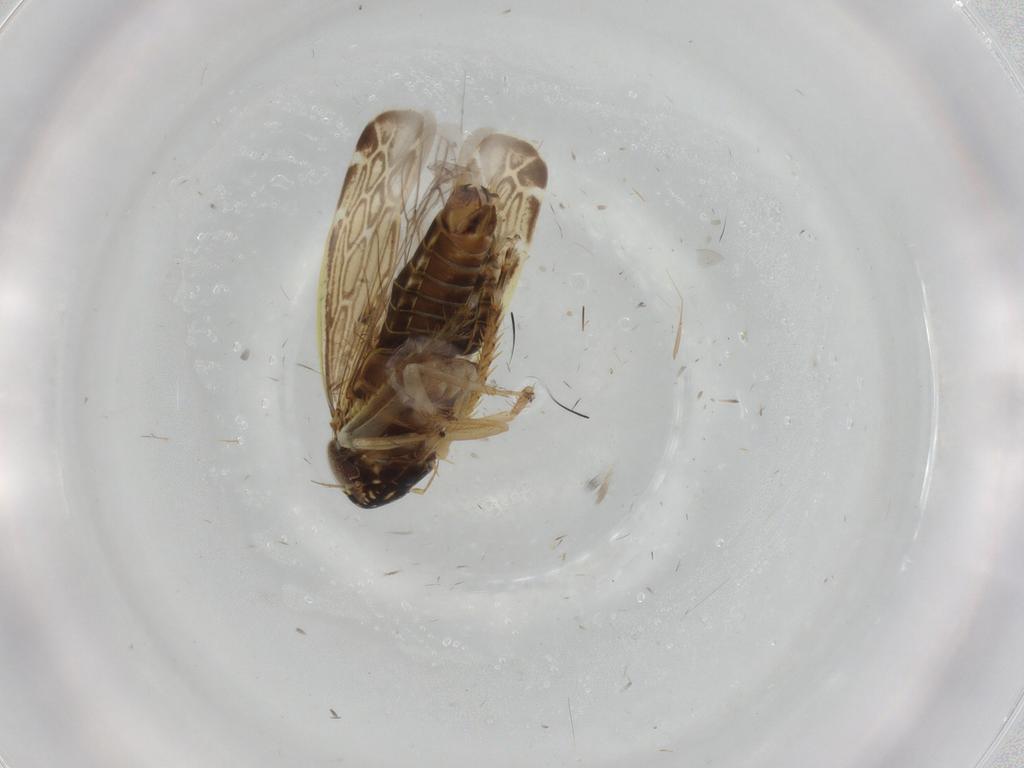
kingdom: Animalia
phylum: Arthropoda
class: Insecta
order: Hemiptera
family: Cicadellidae
